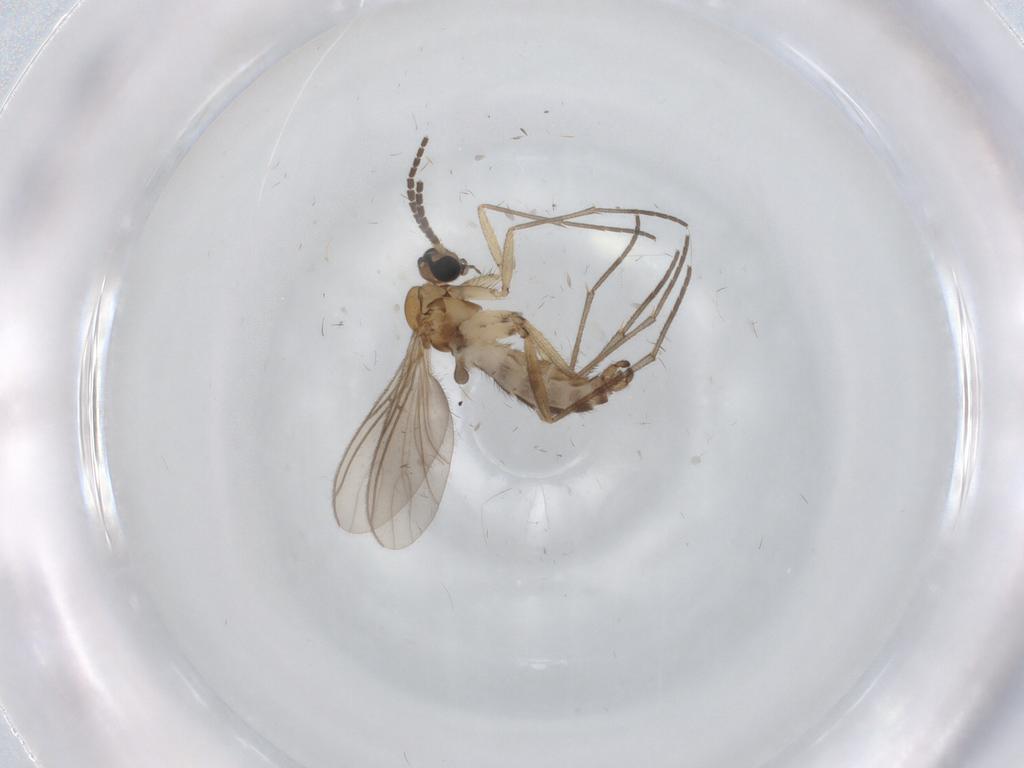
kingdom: Animalia
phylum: Arthropoda
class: Insecta
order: Diptera
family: Sciaridae
